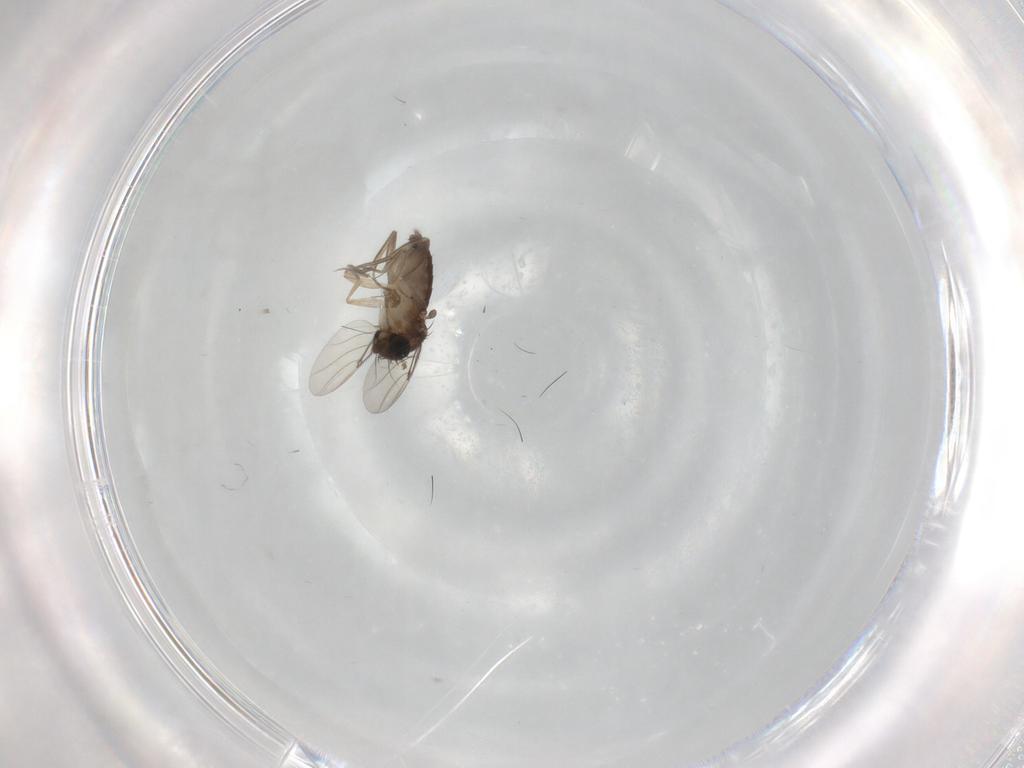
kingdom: Animalia
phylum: Arthropoda
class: Insecta
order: Diptera
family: Phoridae
